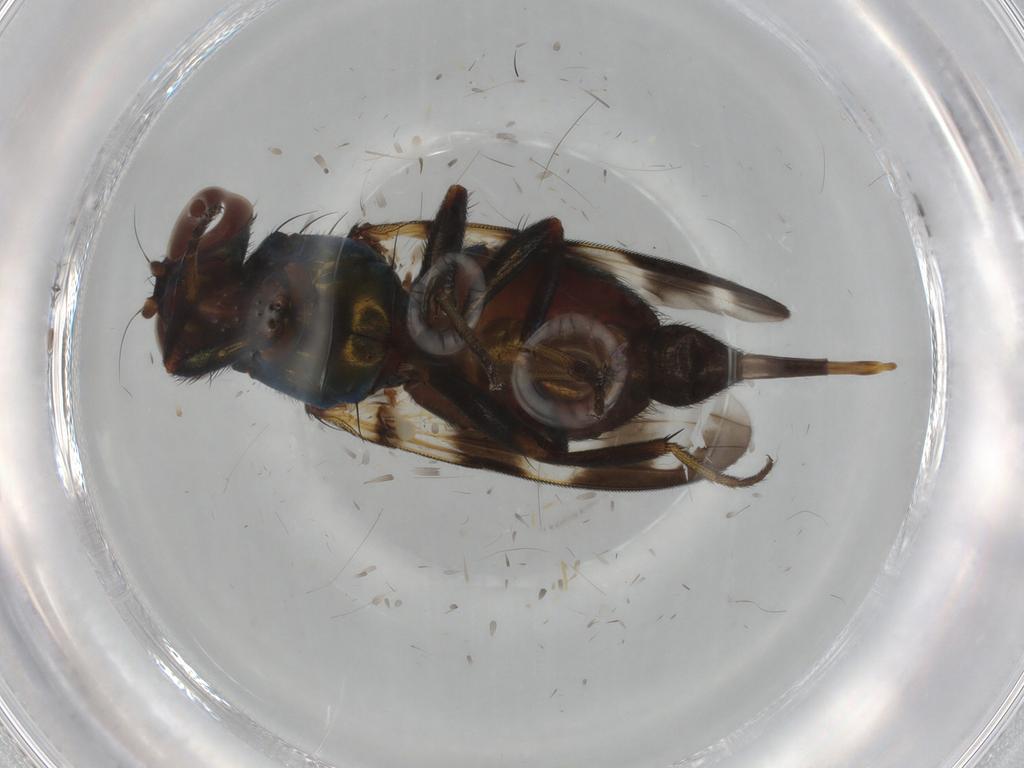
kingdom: Animalia
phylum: Arthropoda
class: Insecta
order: Diptera
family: Ulidiidae
